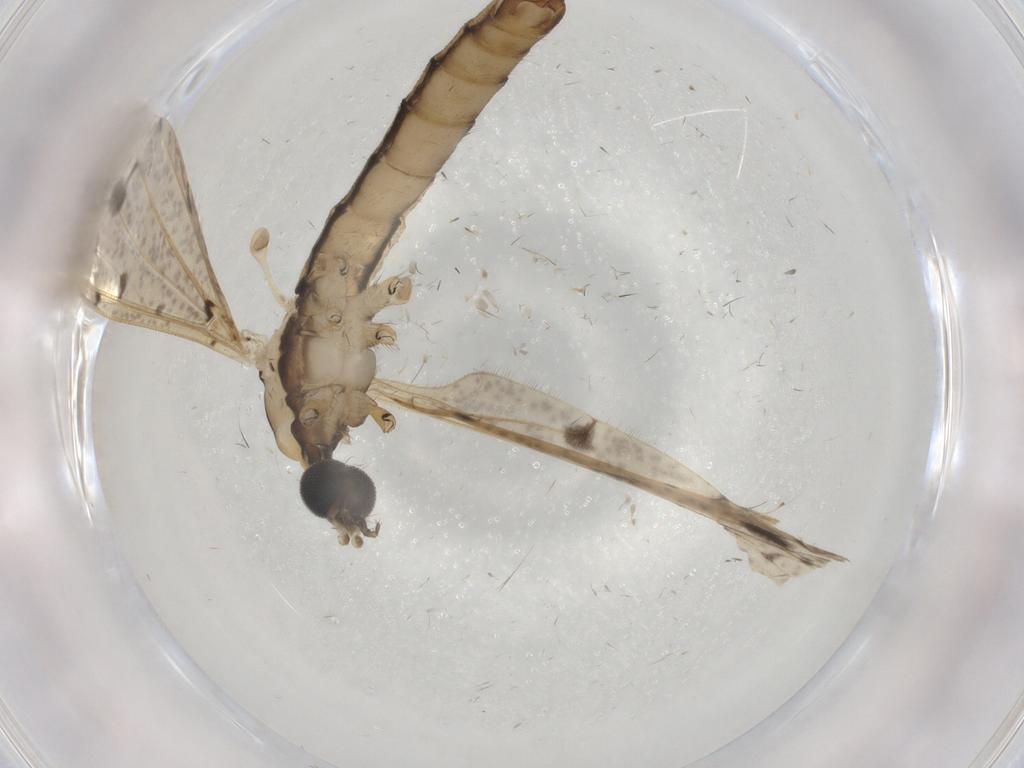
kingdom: Animalia
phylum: Arthropoda
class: Insecta
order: Diptera
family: Limoniidae
